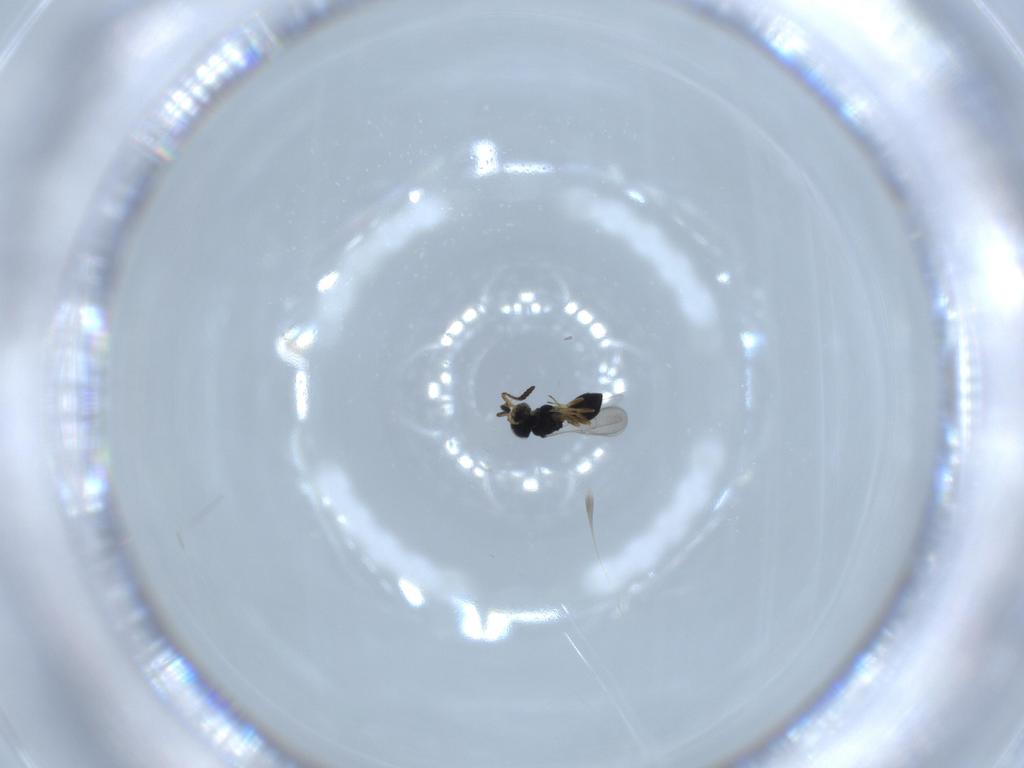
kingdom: Animalia
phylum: Arthropoda
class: Insecta
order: Hymenoptera
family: Scelionidae
